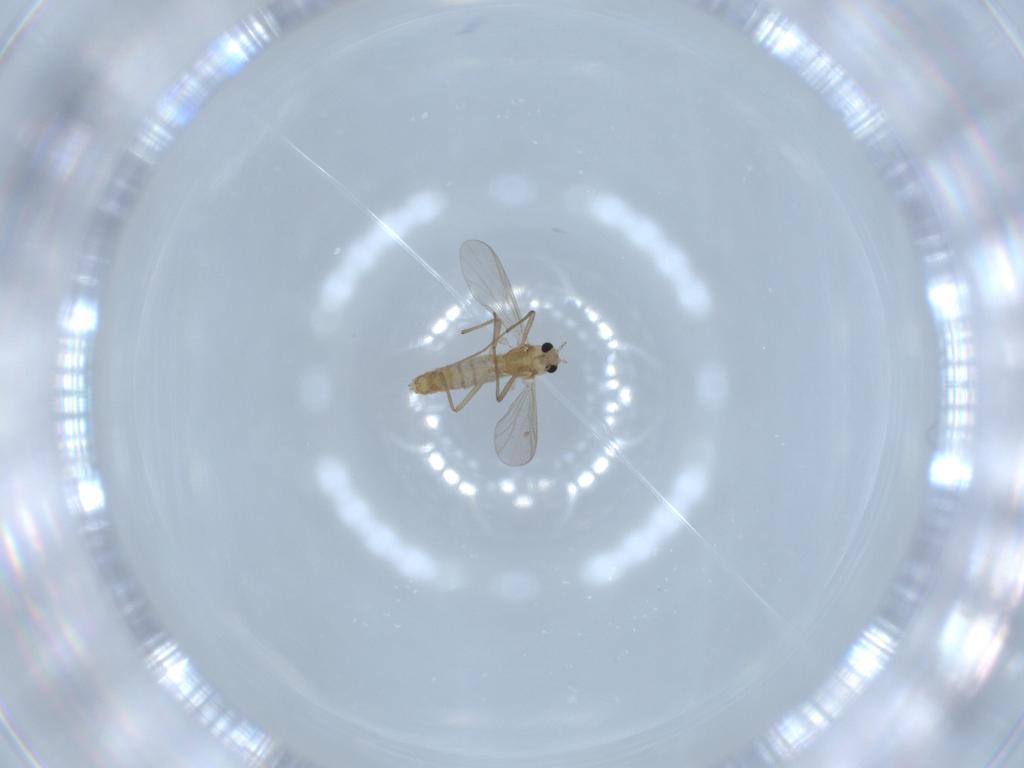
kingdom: Animalia
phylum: Arthropoda
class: Insecta
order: Diptera
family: Chironomidae
